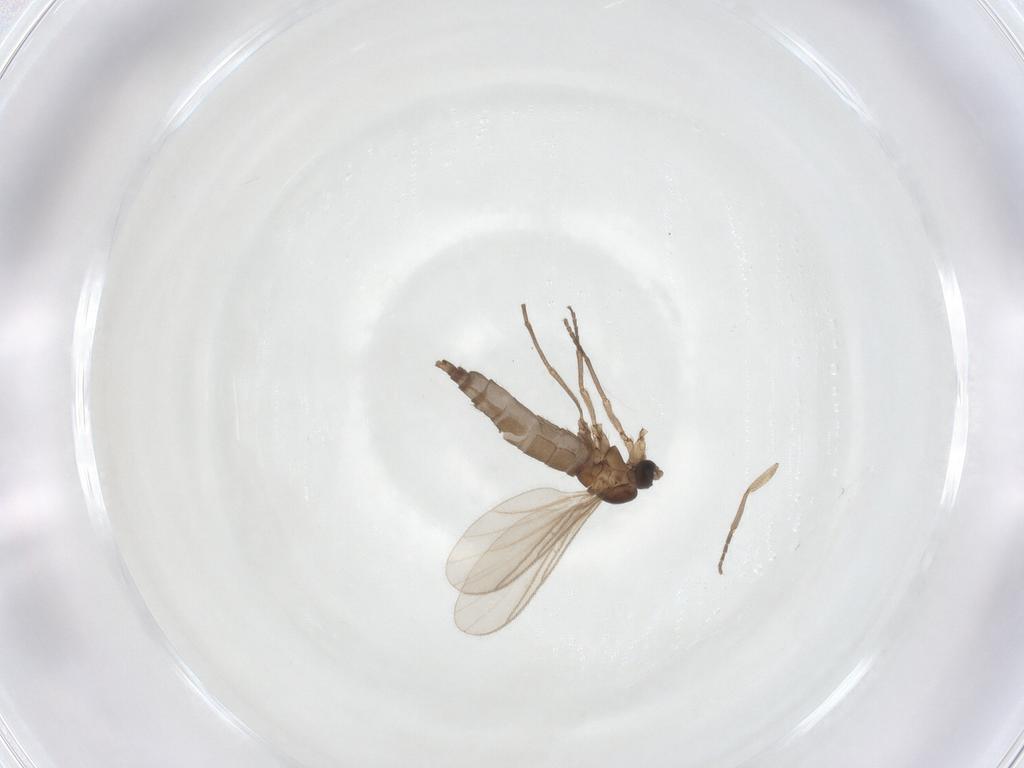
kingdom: Animalia
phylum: Arthropoda
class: Insecta
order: Diptera
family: Sciaridae
